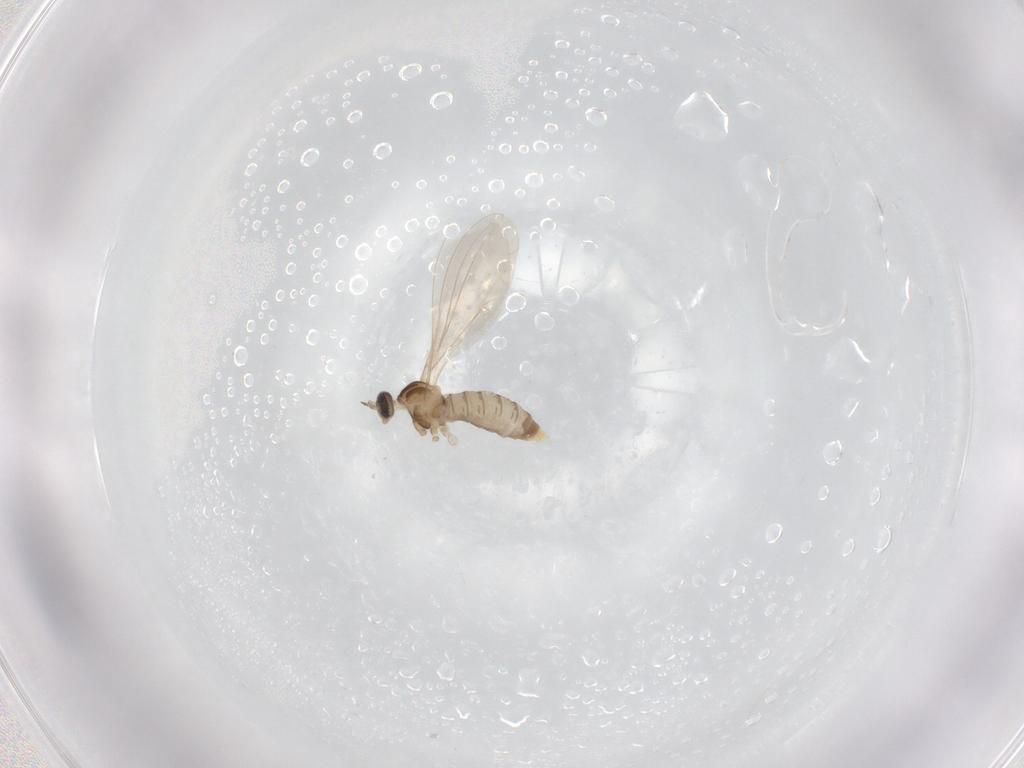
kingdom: Animalia
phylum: Arthropoda
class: Insecta
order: Diptera
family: Cecidomyiidae
